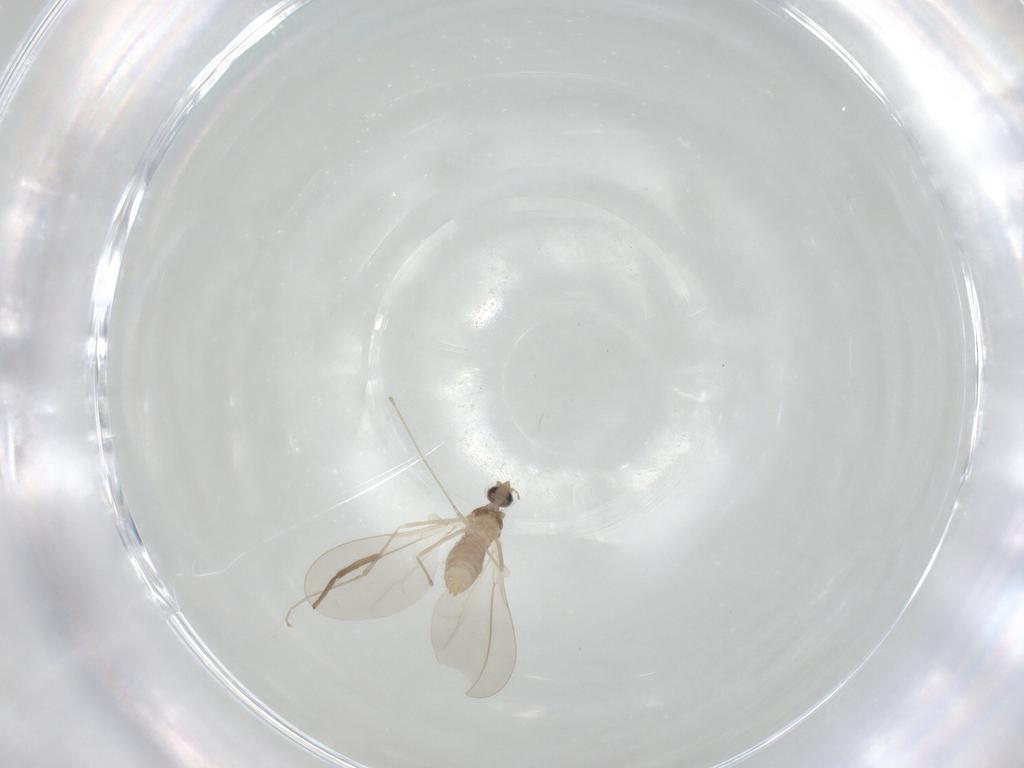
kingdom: Animalia
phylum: Arthropoda
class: Insecta
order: Diptera
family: Cecidomyiidae
